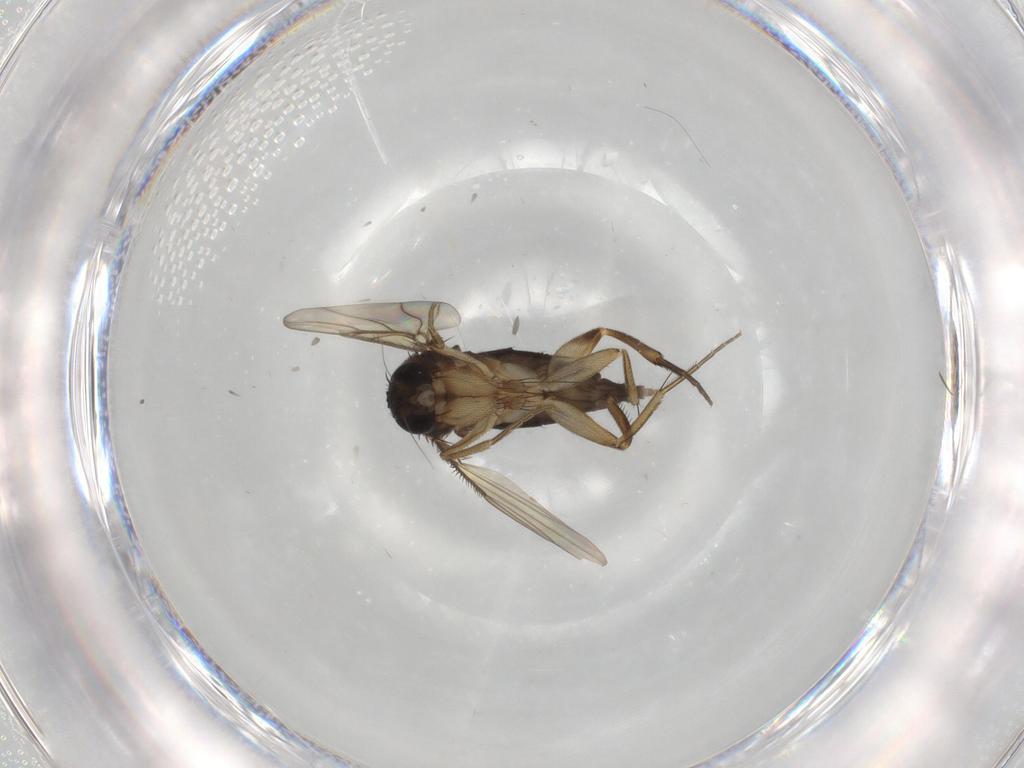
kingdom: Animalia
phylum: Arthropoda
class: Insecta
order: Diptera
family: Phoridae
